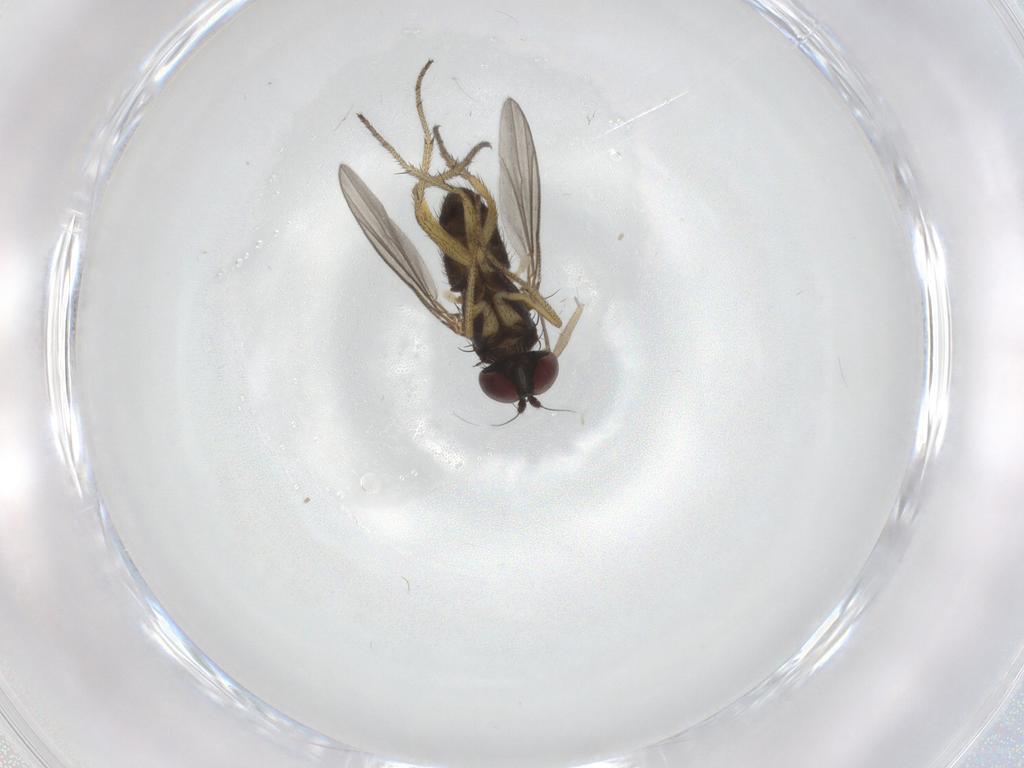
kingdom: Animalia
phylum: Arthropoda
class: Insecta
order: Diptera
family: Chironomidae
